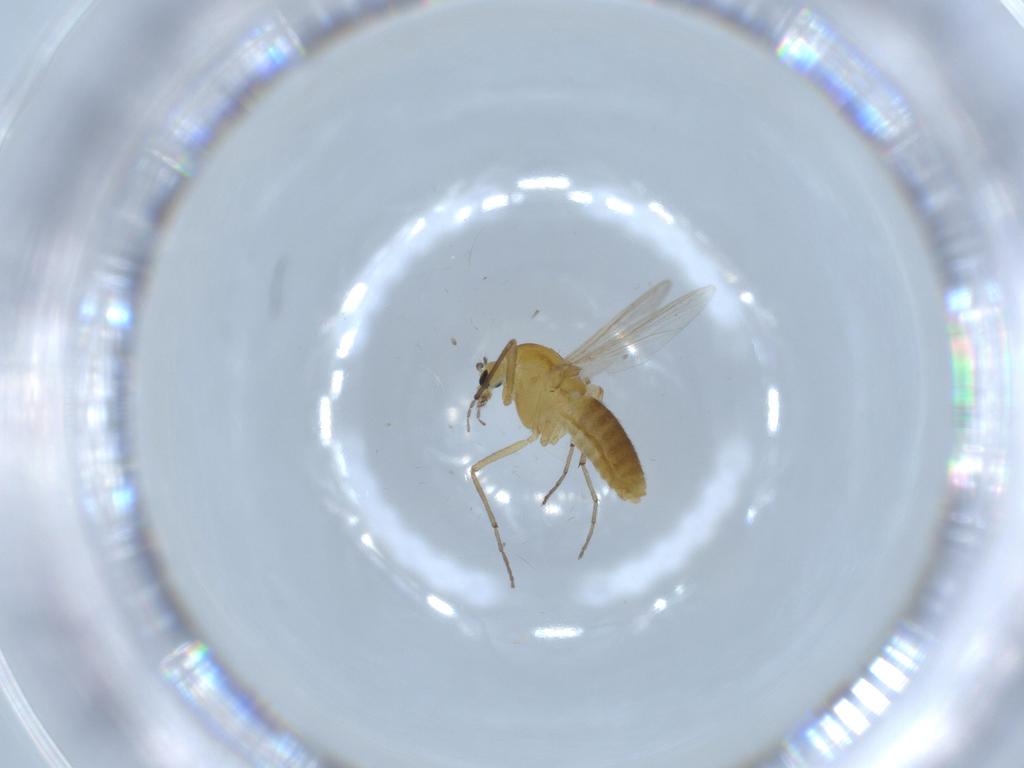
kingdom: Animalia
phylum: Arthropoda
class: Insecta
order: Diptera
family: Chironomidae
